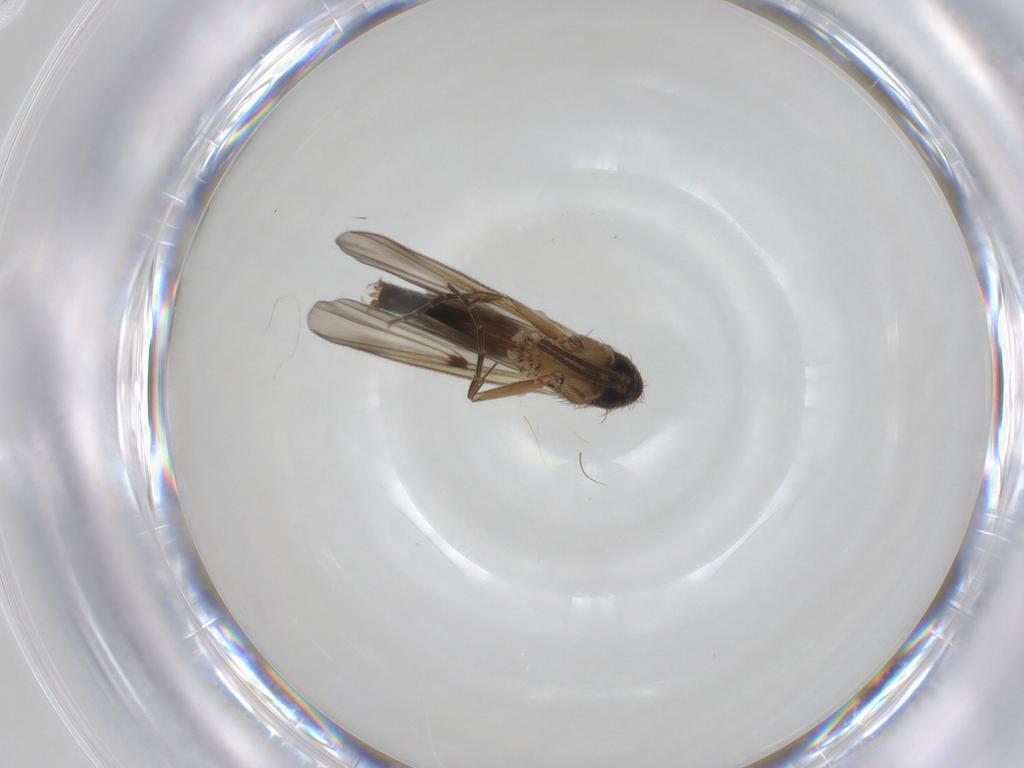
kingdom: Animalia
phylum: Arthropoda
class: Insecta
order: Diptera
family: Mycetophilidae
